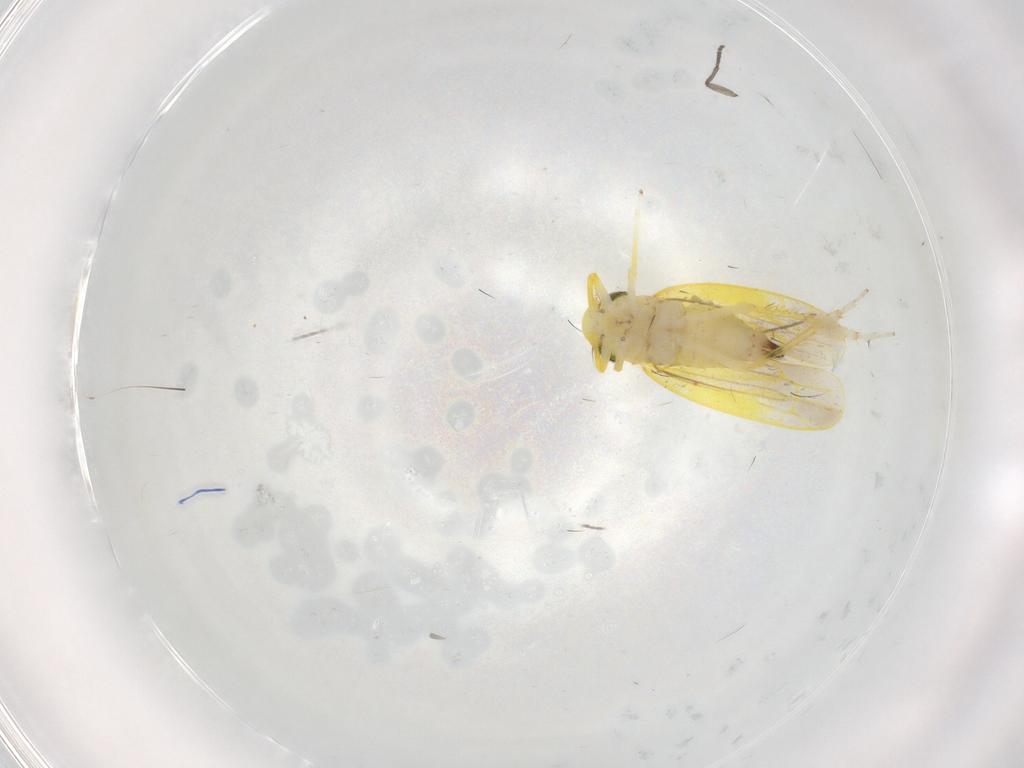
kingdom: Animalia
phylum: Arthropoda
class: Insecta
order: Hemiptera
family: Cicadellidae
